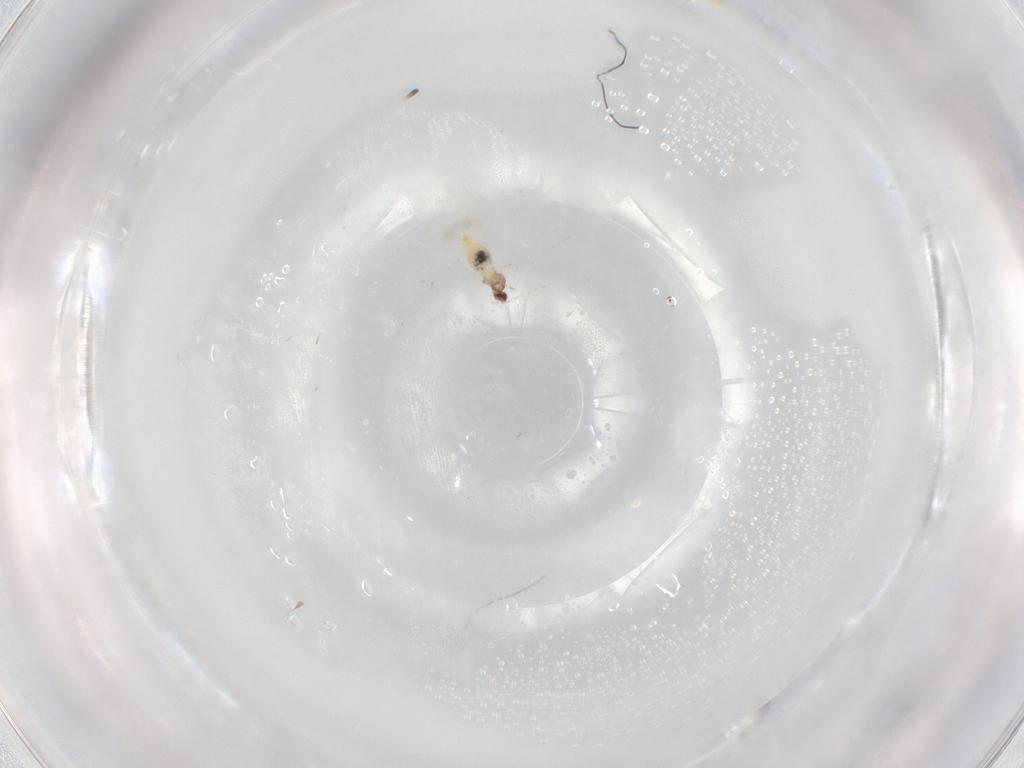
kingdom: Animalia
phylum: Arthropoda
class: Insecta
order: Diptera
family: Cecidomyiidae
